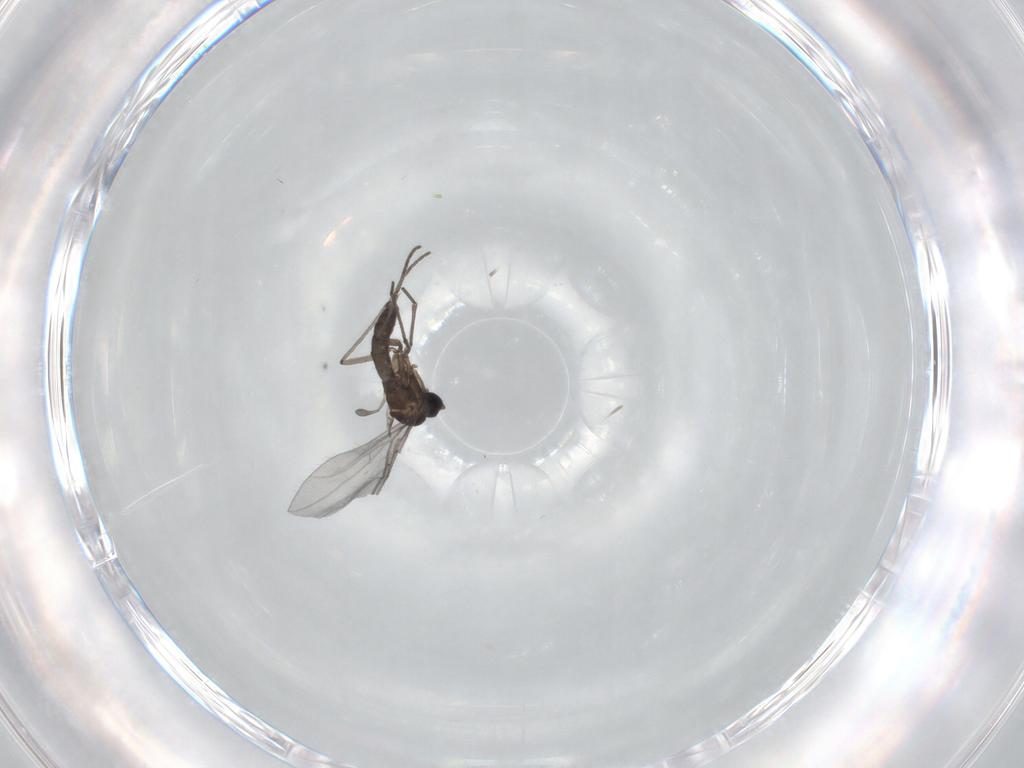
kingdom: Animalia
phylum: Arthropoda
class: Insecta
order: Diptera
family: Sciaridae
